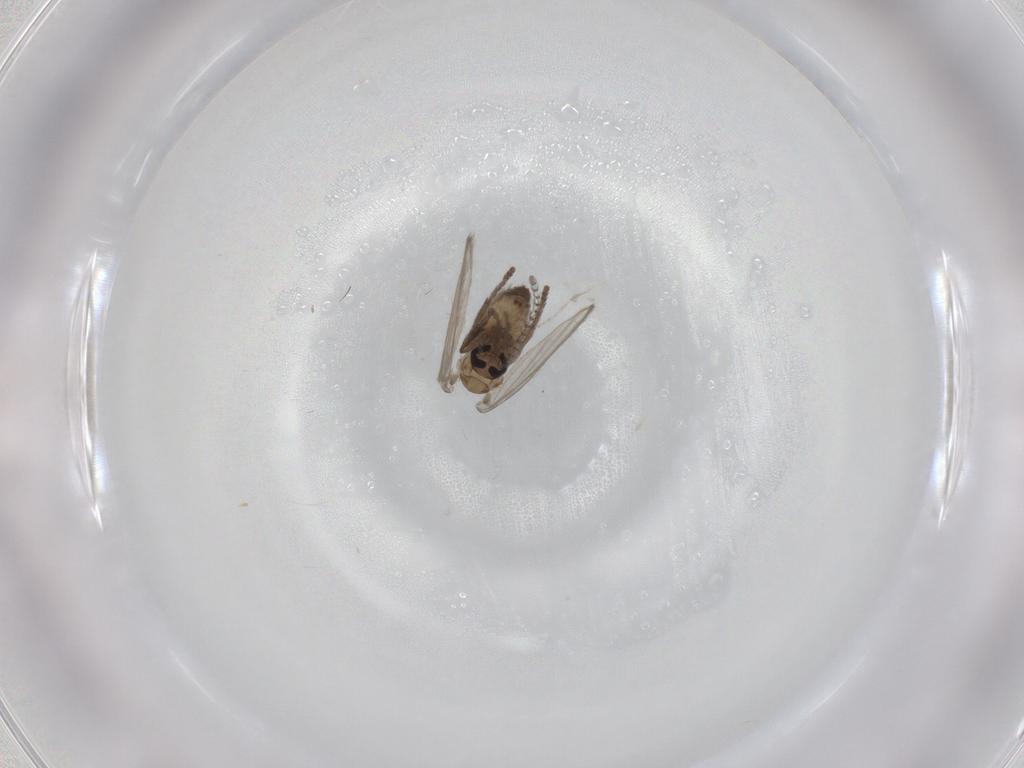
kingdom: Animalia
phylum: Arthropoda
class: Insecta
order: Diptera
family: Psychodidae
